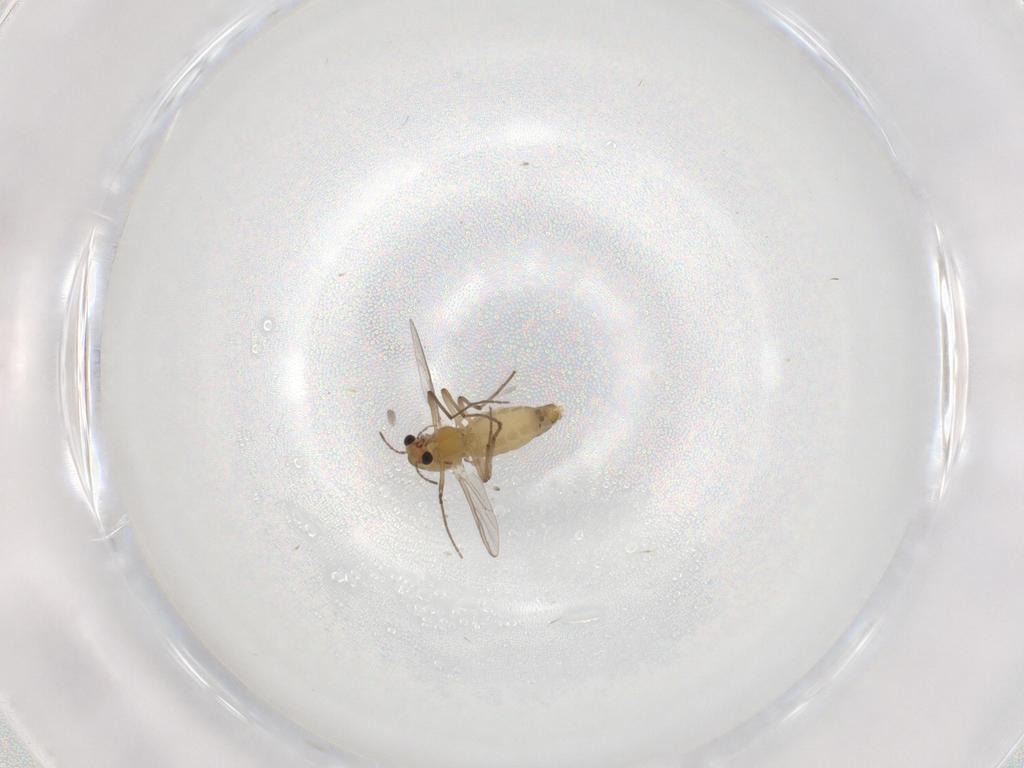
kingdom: Animalia
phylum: Arthropoda
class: Insecta
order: Diptera
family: Chironomidae
